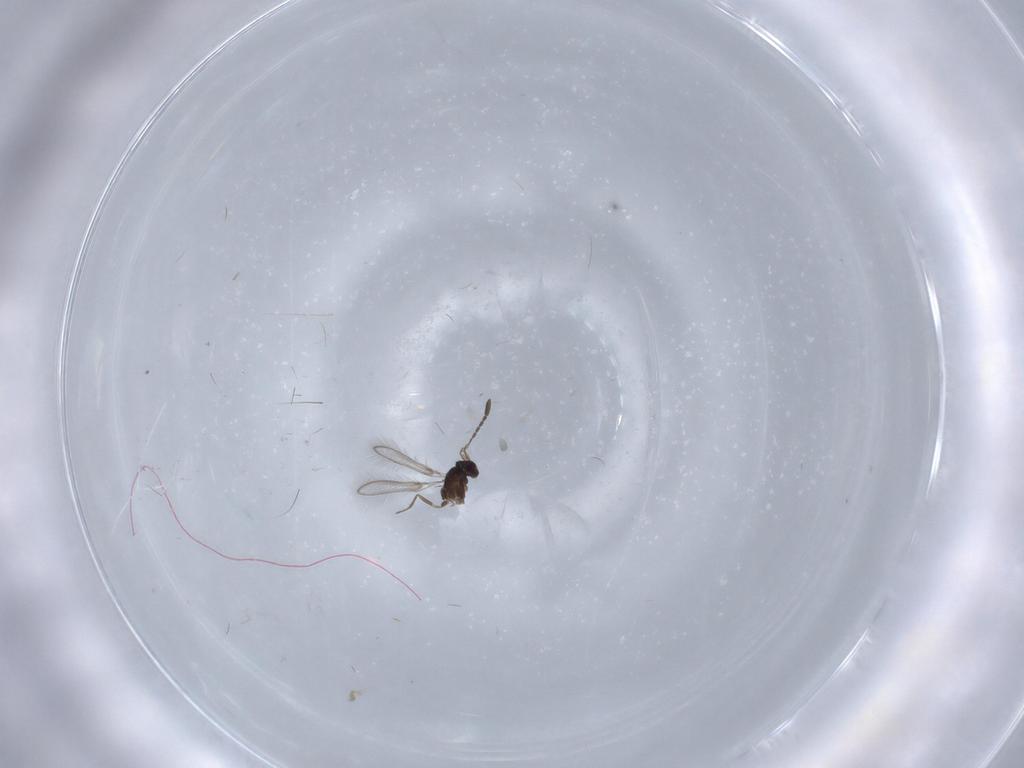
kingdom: Animalia
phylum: Arthropoda
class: Insecta
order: Hymenoptera
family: Mymaridae
